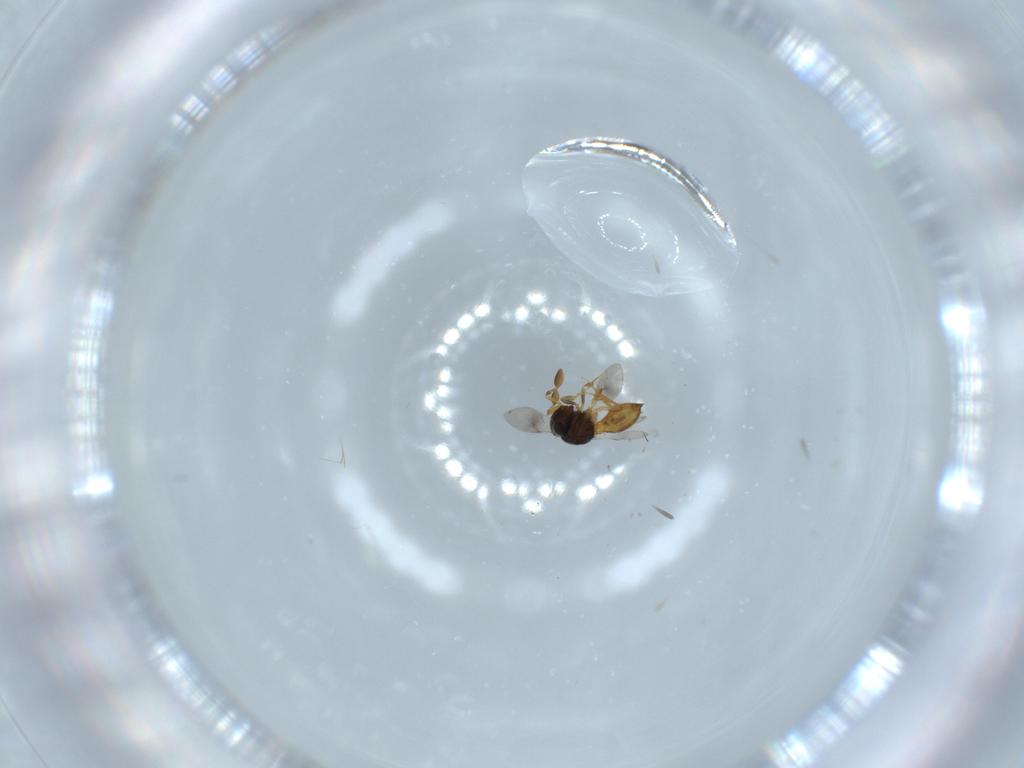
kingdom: Animalia
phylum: Arthropoda
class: Insecta
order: Hymenoptera
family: Scelionidae
